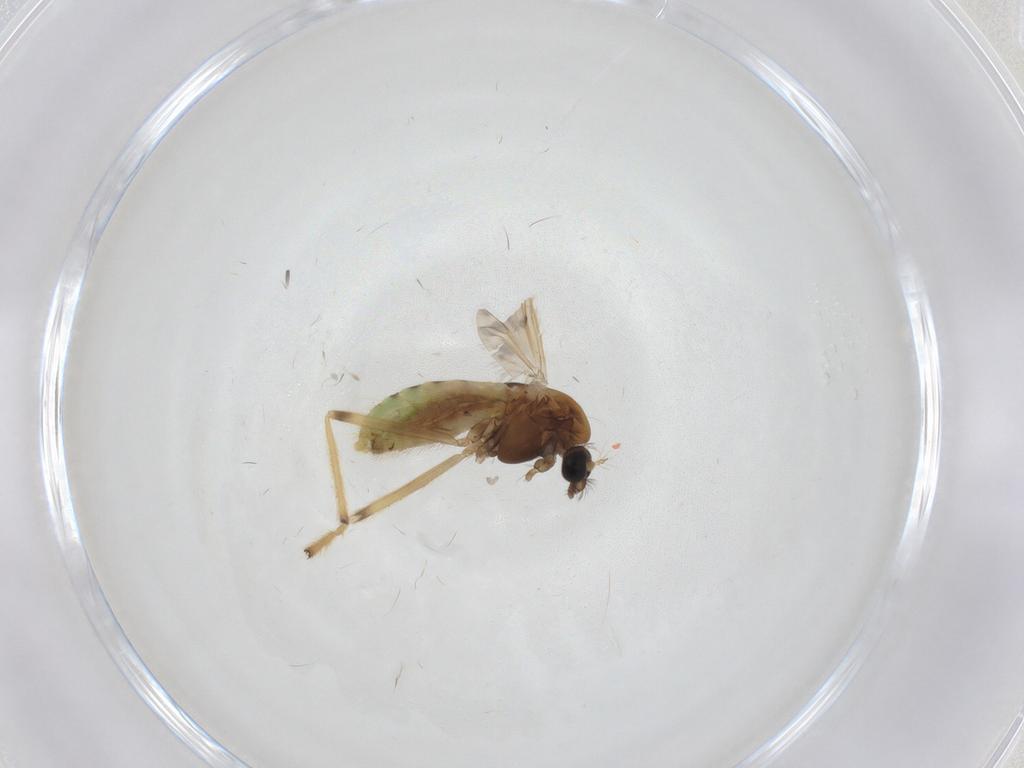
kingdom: Animalia
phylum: Arthropoda
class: Insecta
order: Diptera
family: Chironomidae
